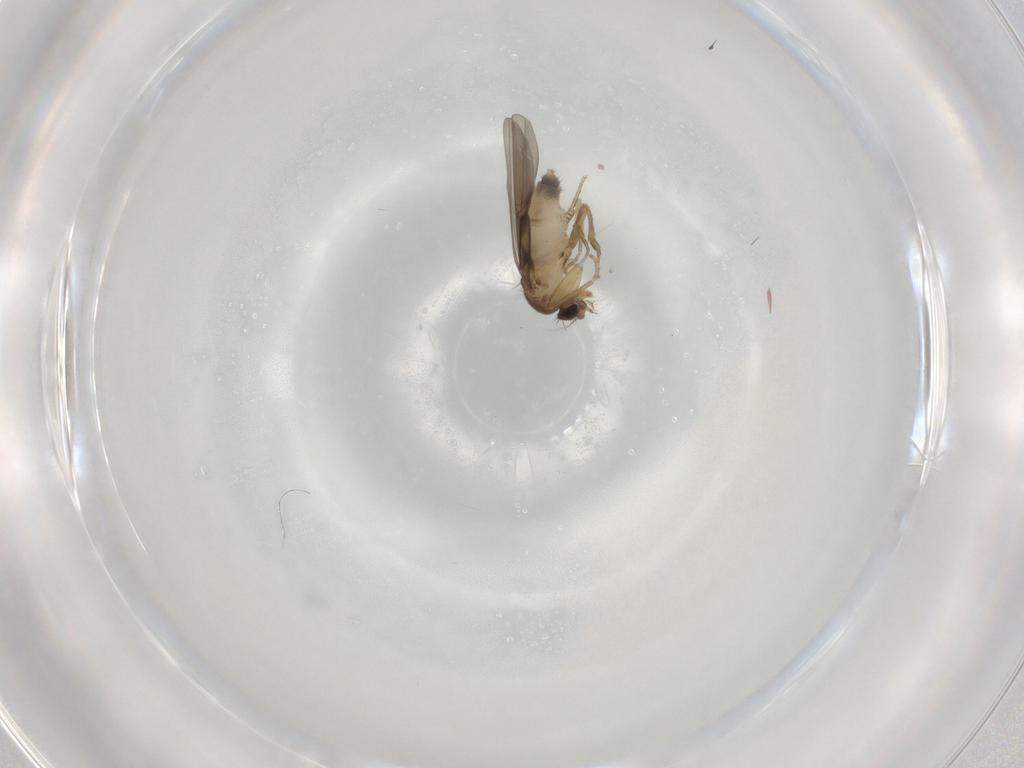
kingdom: Animalia
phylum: Arthropoda
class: Insecta
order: Diptera
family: Phoridae
